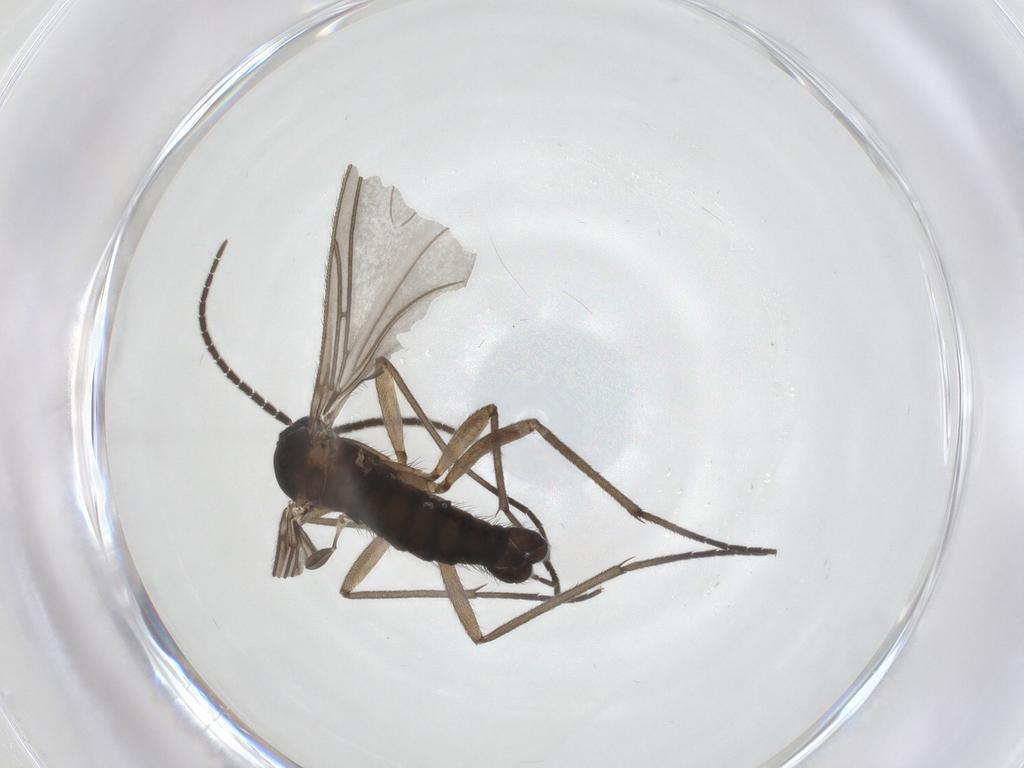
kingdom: Animalia
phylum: Arthropoda
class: Insecta
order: Diptera
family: Sciaridae
